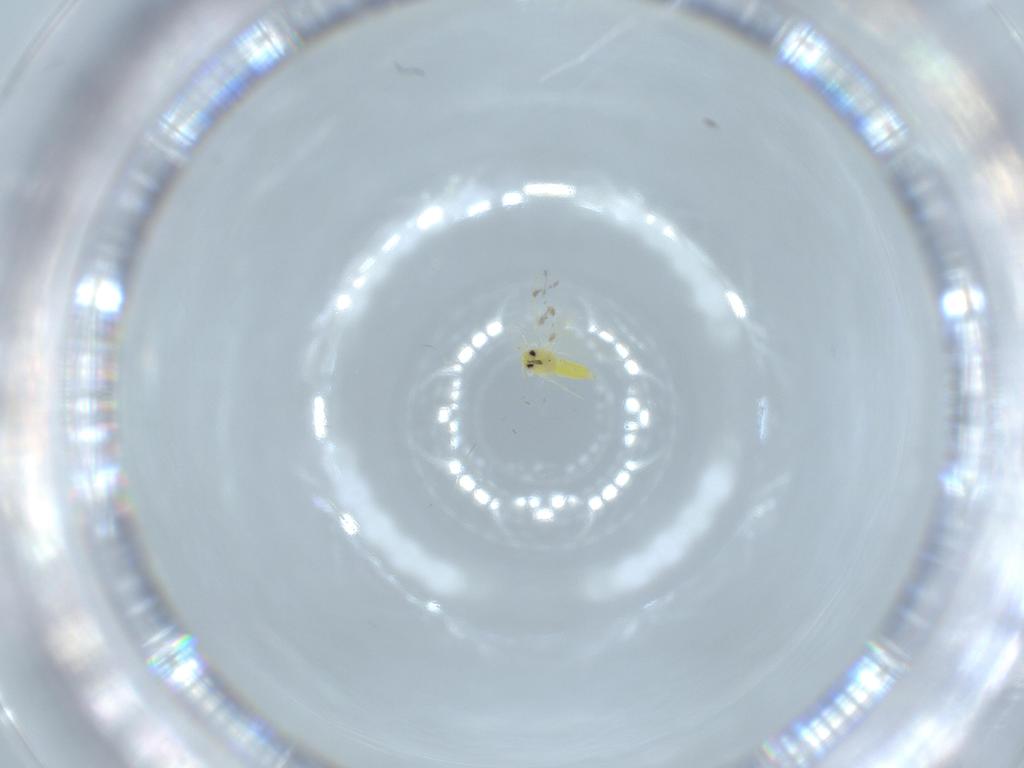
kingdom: Animalia
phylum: Arthropoda
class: Insecta
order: Hemiptera
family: Aleyrodidae
